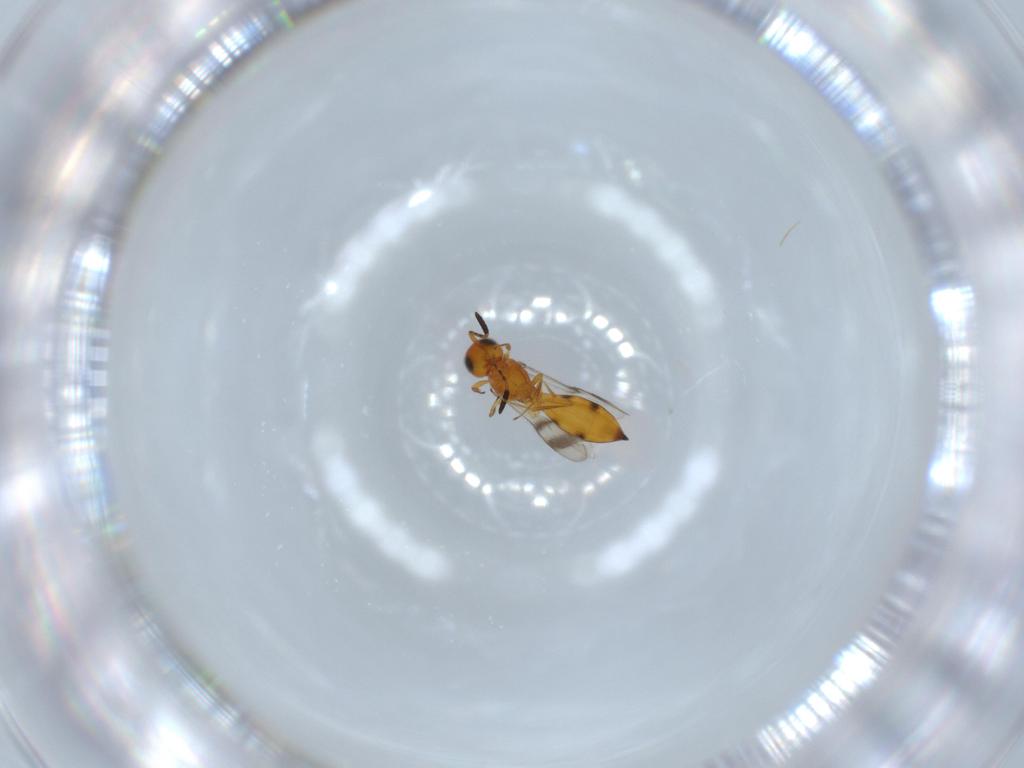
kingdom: Animalia
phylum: Arthropoda
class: Insecta
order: Hymenoptera
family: Scelionidae
